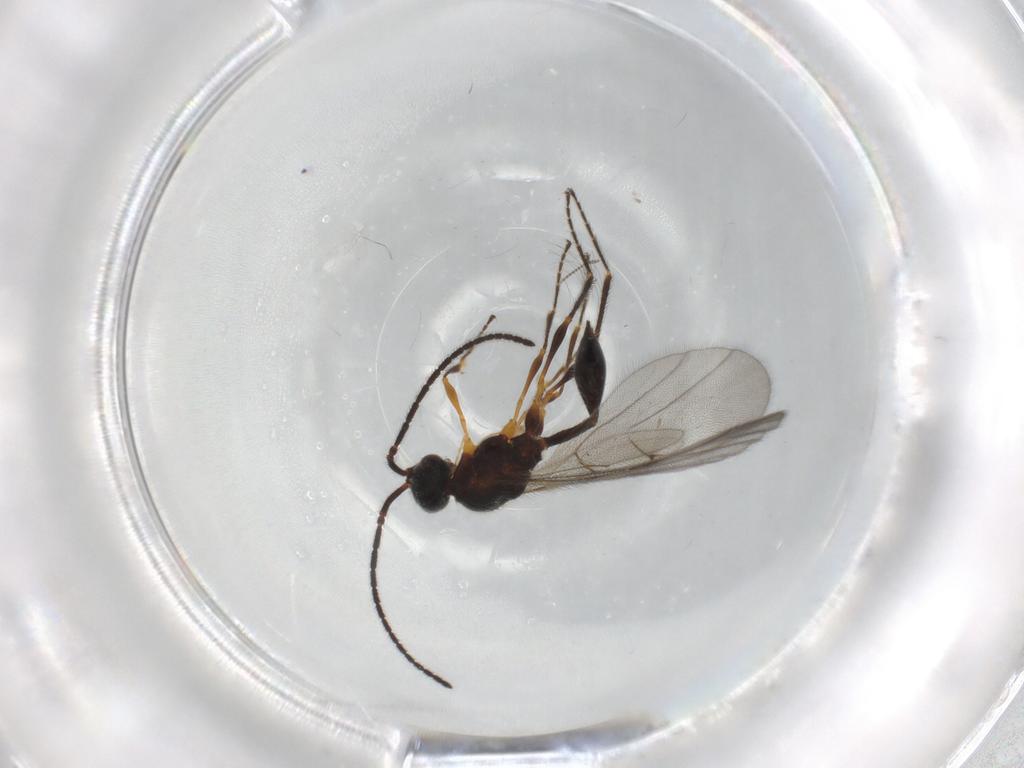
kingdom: Animalia
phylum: Arthropoda
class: Insecta
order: Hymenoptera
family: Diapriidae
